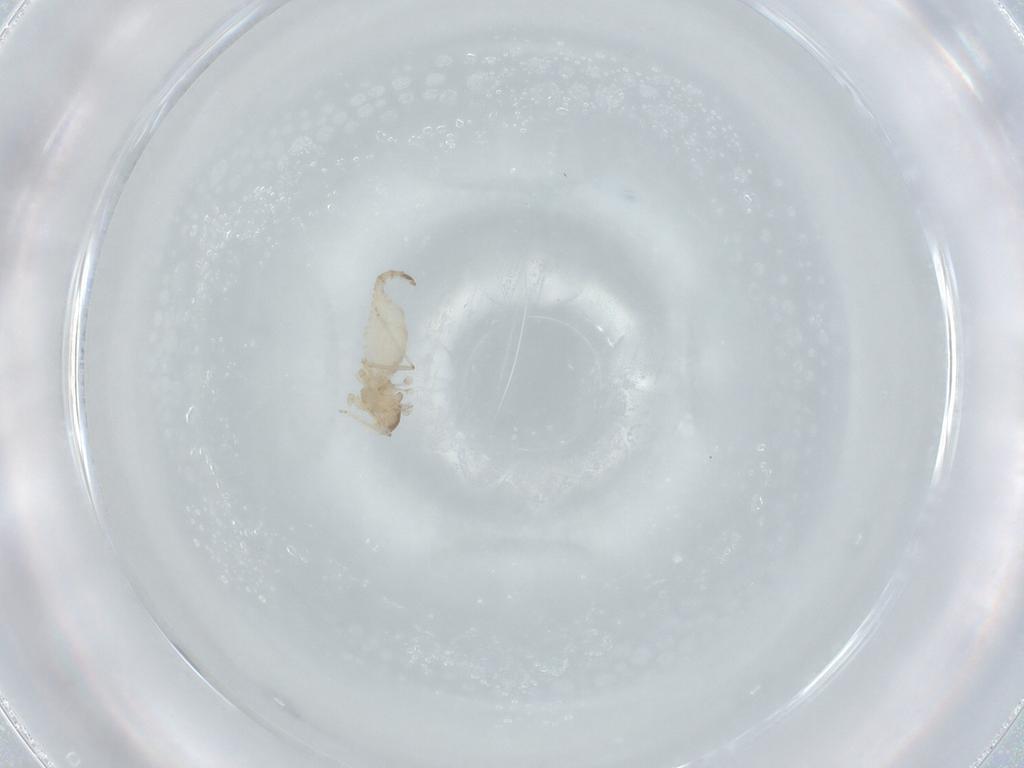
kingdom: Animalia
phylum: Arthropoda
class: Insecta
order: Diptera
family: Cecidomyiidae
